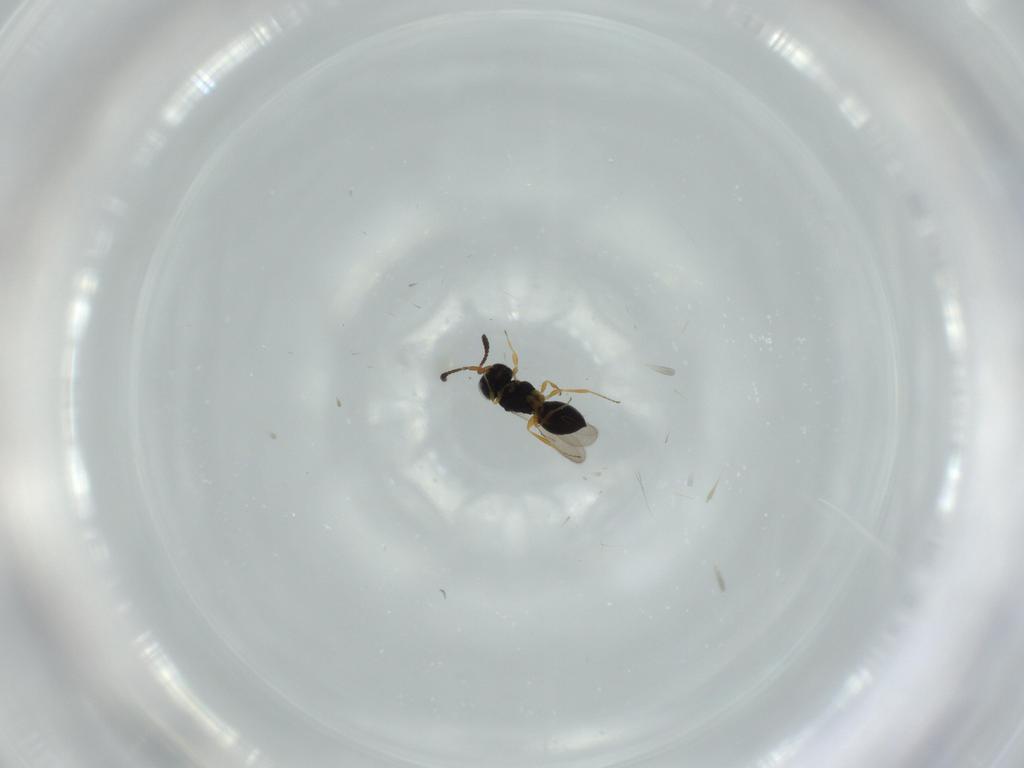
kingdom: Animalia
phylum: Arthropoda
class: Insecta
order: Hymenoptera
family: Scelionidae
